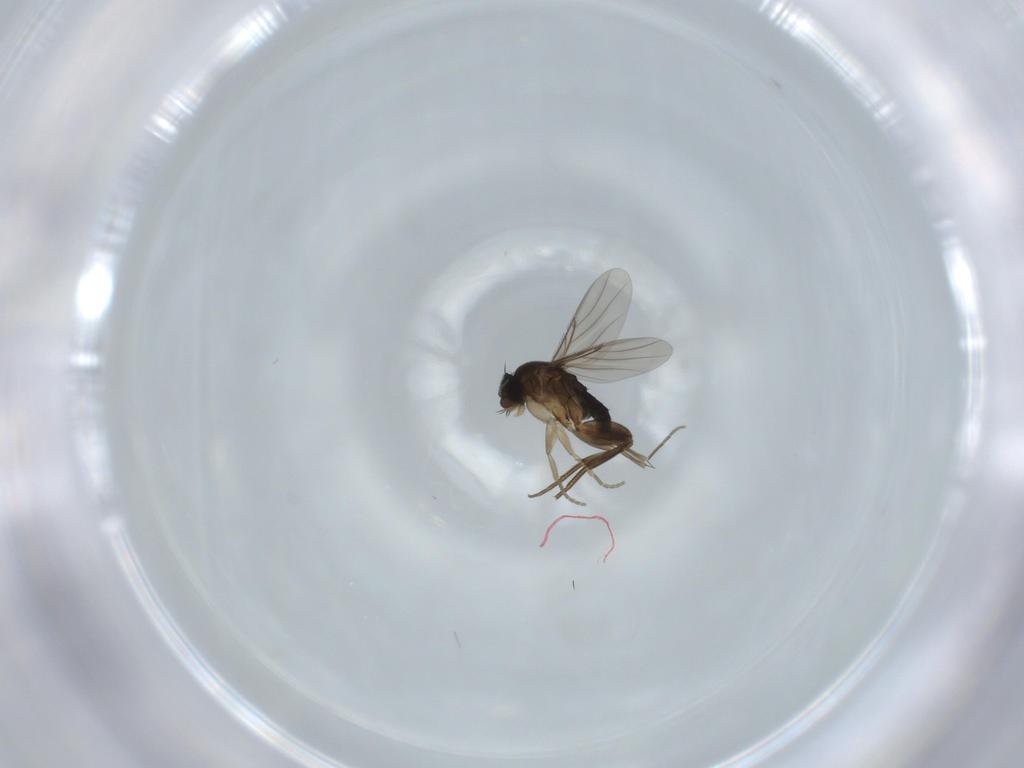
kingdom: Animalia
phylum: Arthropoda
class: Insecta
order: Diptera
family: Phoridae
